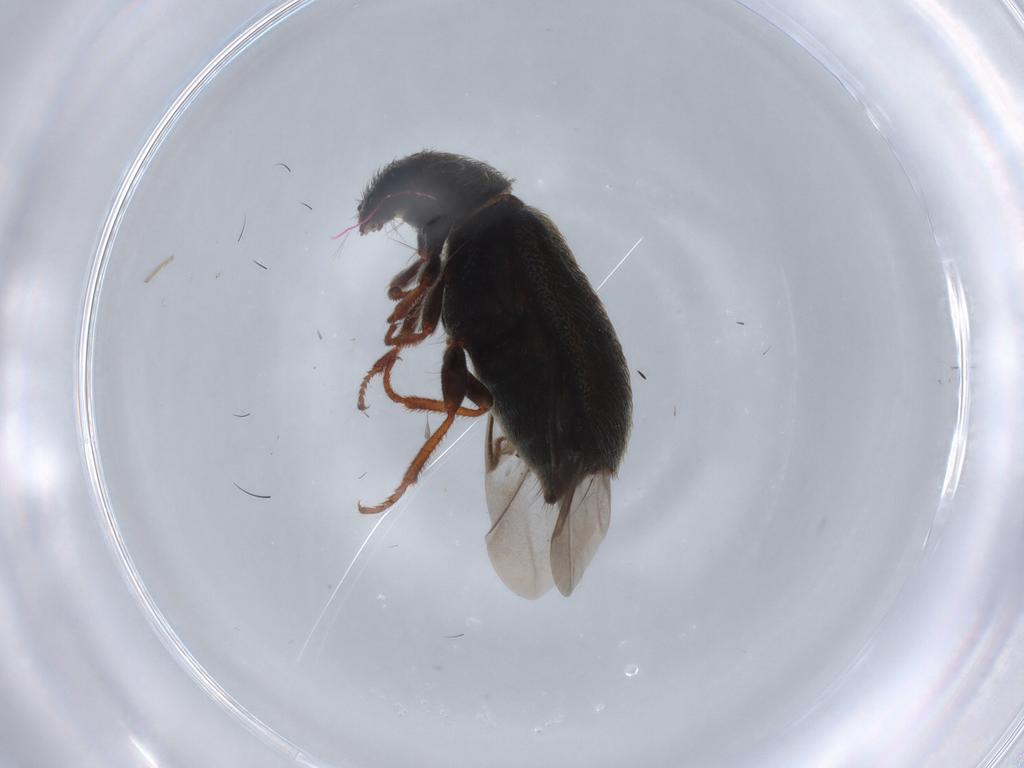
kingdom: Animalia
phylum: Arthropoda
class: Insecta
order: Coleoptera
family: Melyridae
